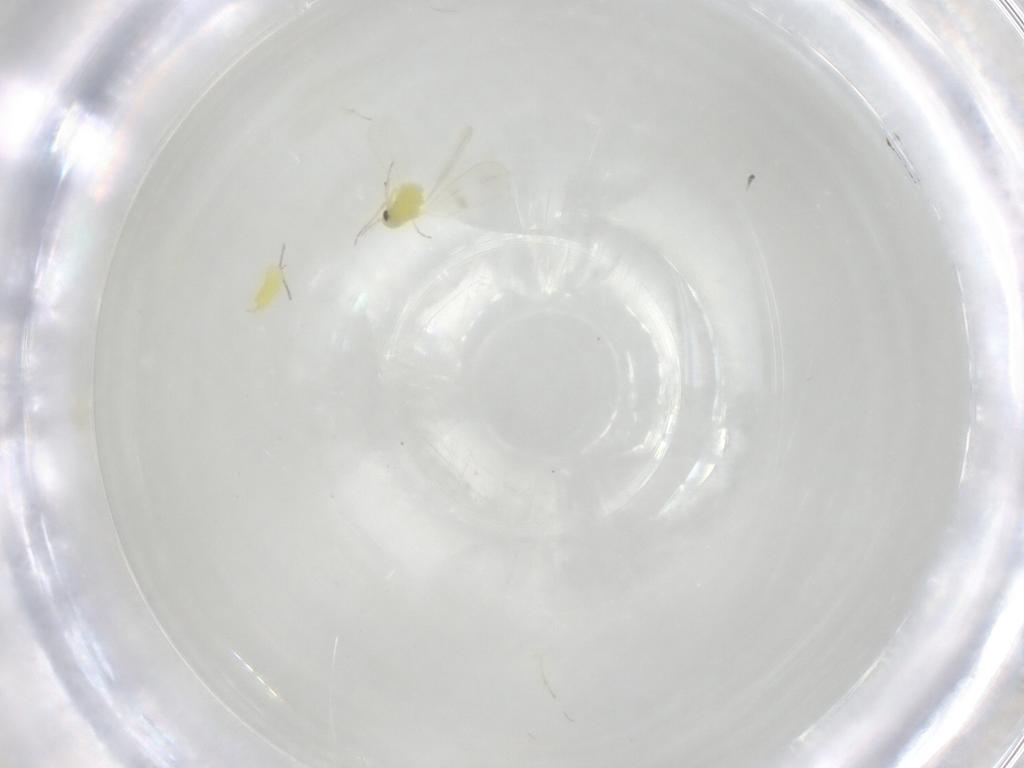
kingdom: Animalia
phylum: Arthropoda
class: Insecta
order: Diptera
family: Chironomidae
